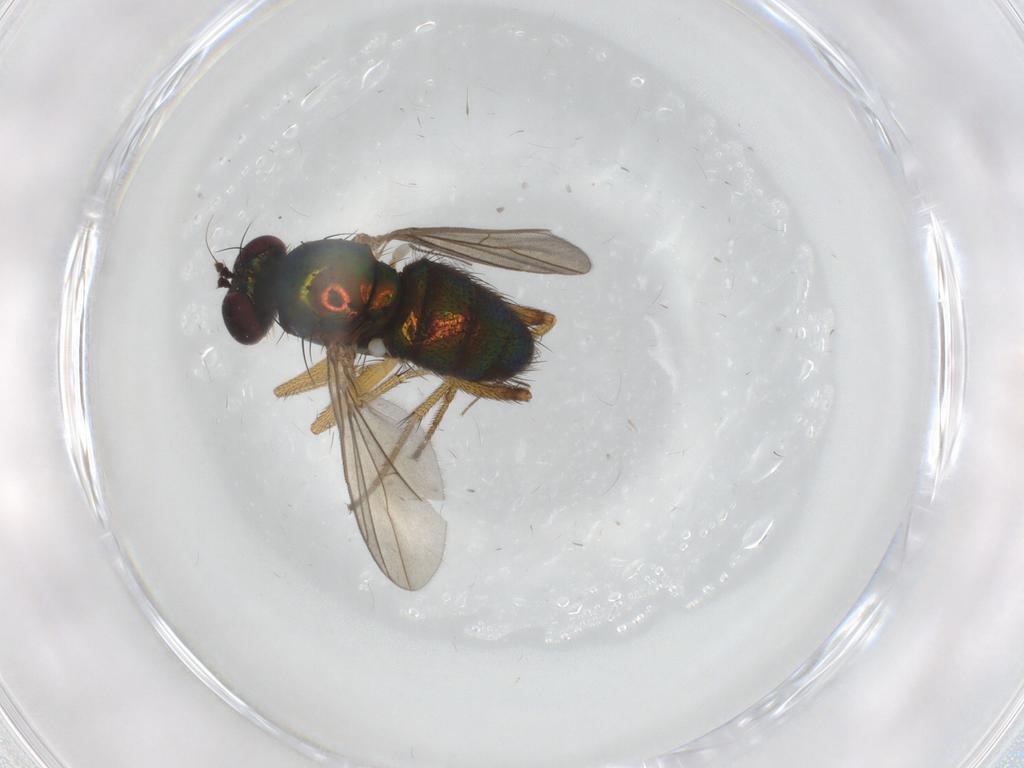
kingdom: Animalia
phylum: Arthropoda
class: Insecta
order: Diptera
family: Dolichopodidae
